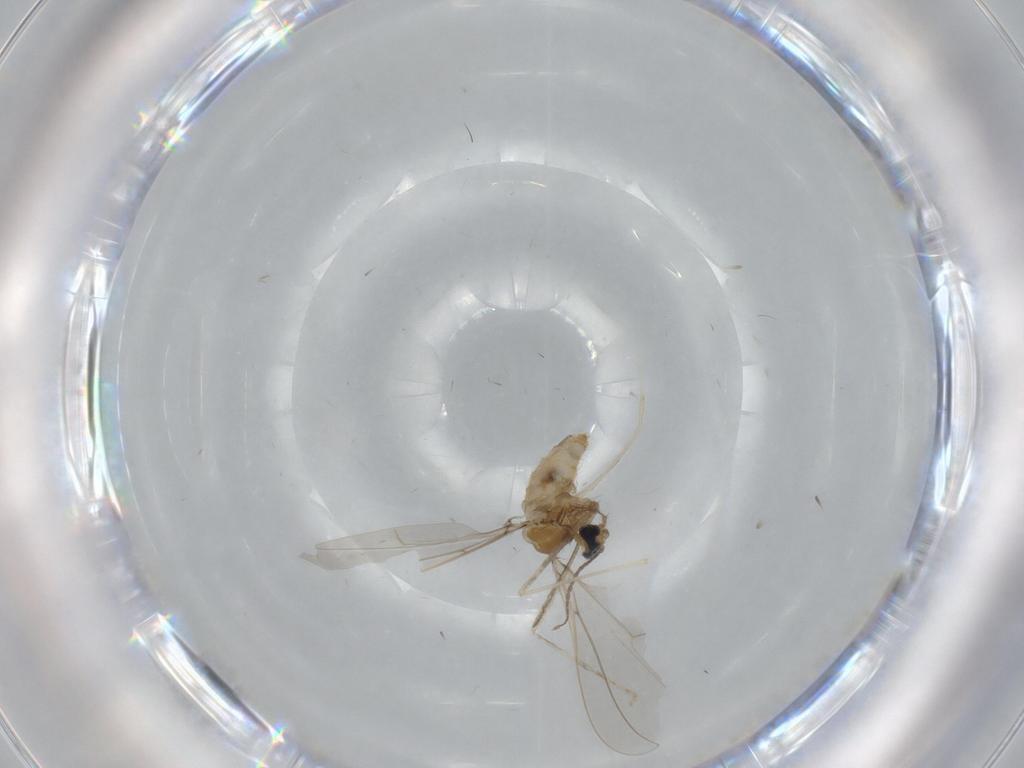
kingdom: Animalia
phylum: Arthropoda
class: Insecta
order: Diptera
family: Cecidomyiidae
